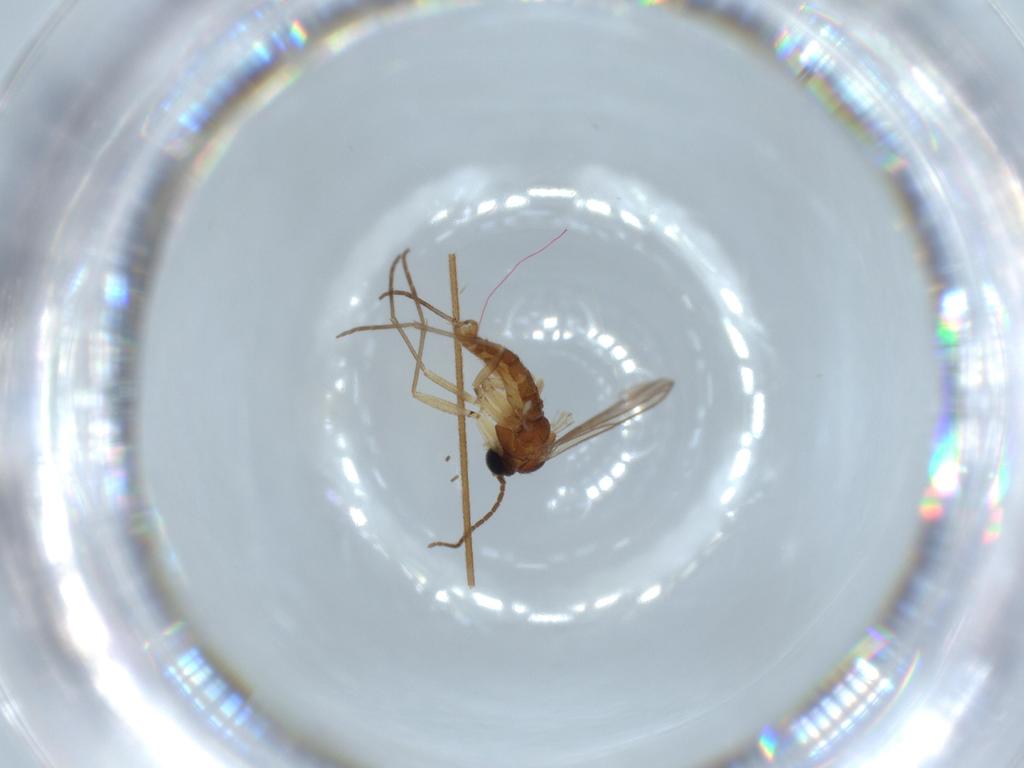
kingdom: Animalia
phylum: Arthropoda
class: Insecta
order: Diptera
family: Sciaridae
